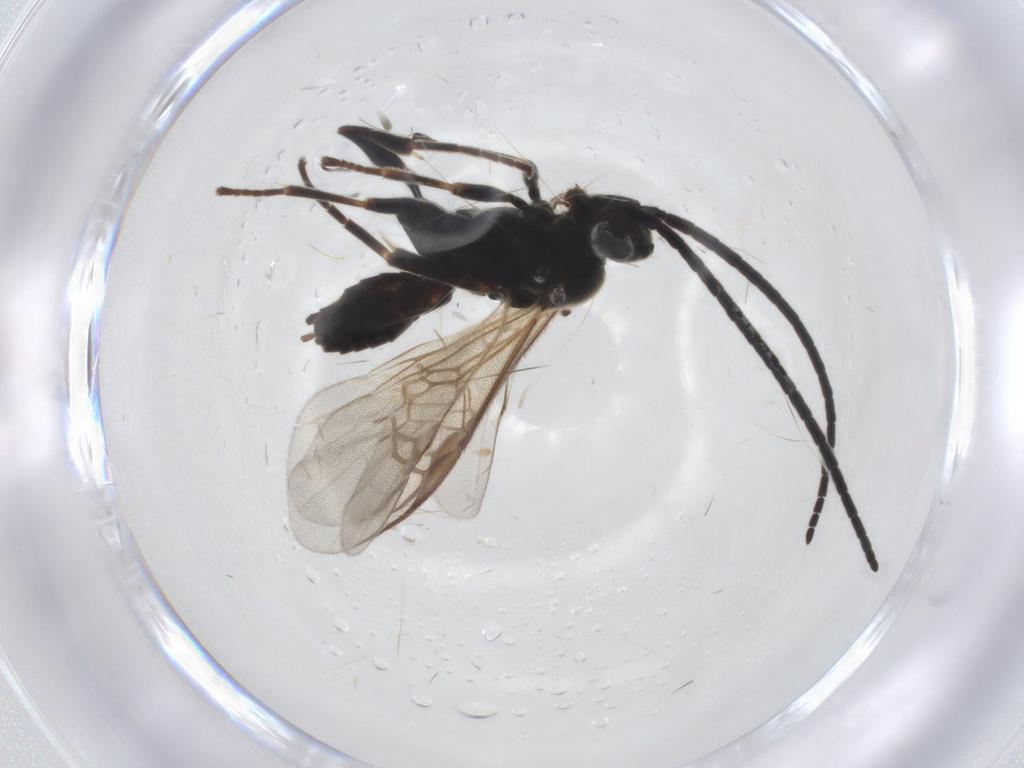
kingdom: Animalia
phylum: Arthropoda
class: Insecta
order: Hymenoptera
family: Braconidae
